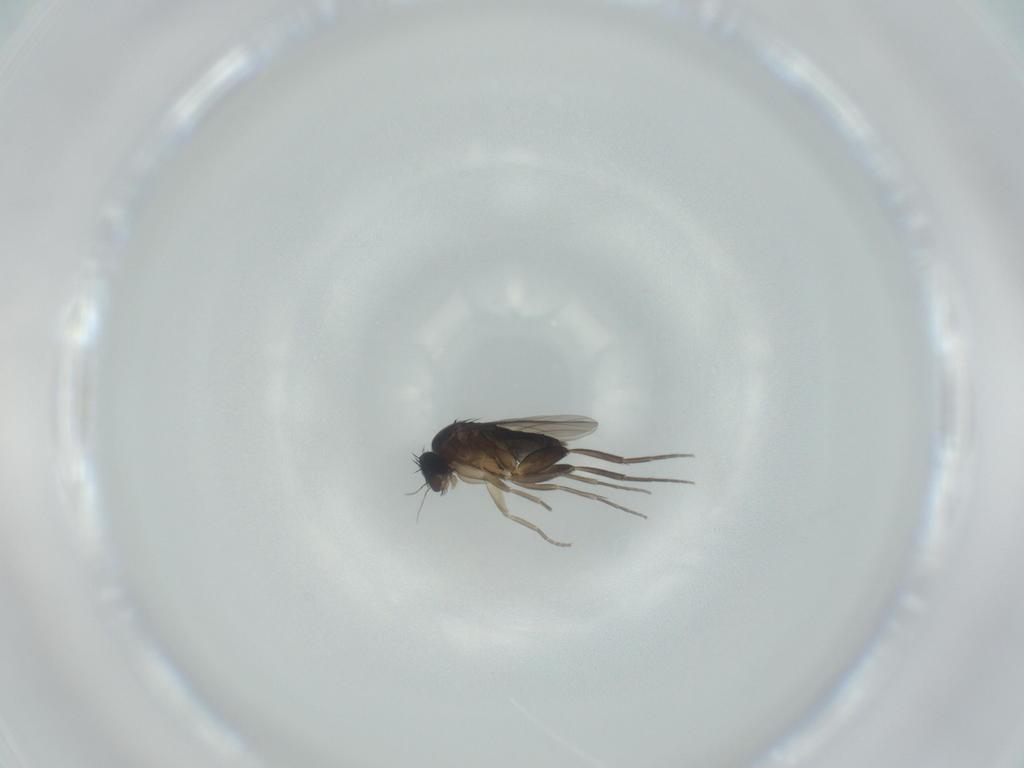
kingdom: Animalia
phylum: Arthropoda
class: Insecta
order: Diptera
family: Phoridae
